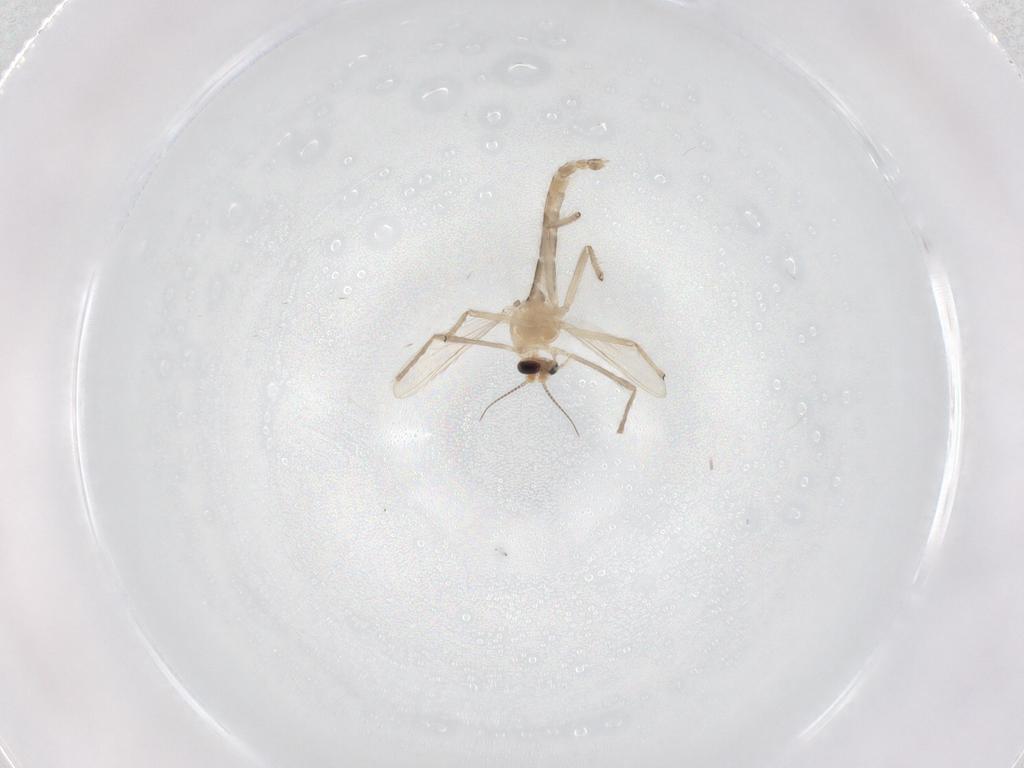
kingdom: Animalia
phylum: Arthropoda
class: Insecta
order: Diptera
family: Chironomidae
